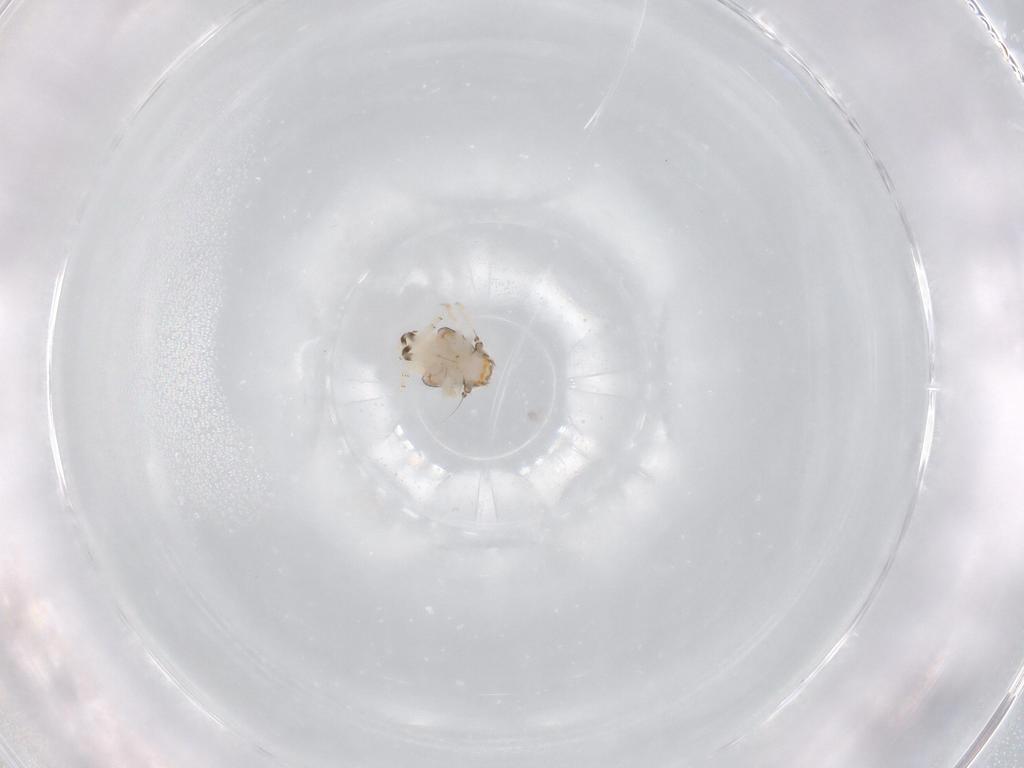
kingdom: Animalia
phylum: Arthropoda
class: Insecta
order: Hemiptera
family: Nogodinidae
